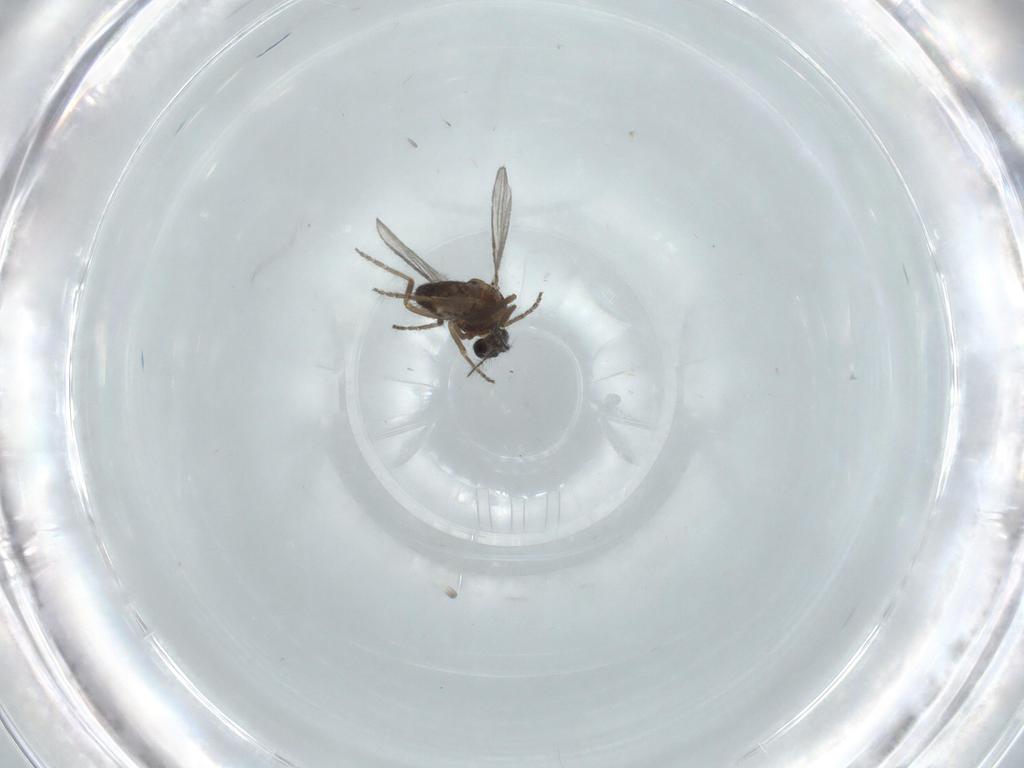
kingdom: Animalia
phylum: Arthropoda
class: Insecta
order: Diptera
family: Chironomidae
